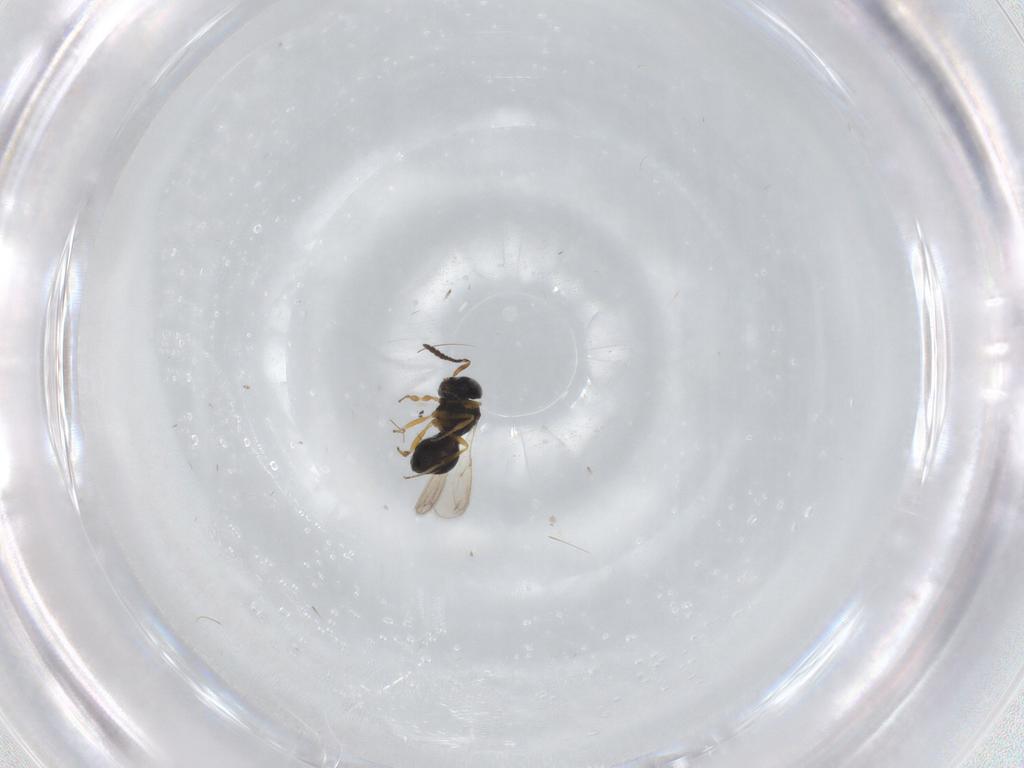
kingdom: Animalia
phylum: Arthropoda
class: Insecta
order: Hymenoptera
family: Scelionidae
